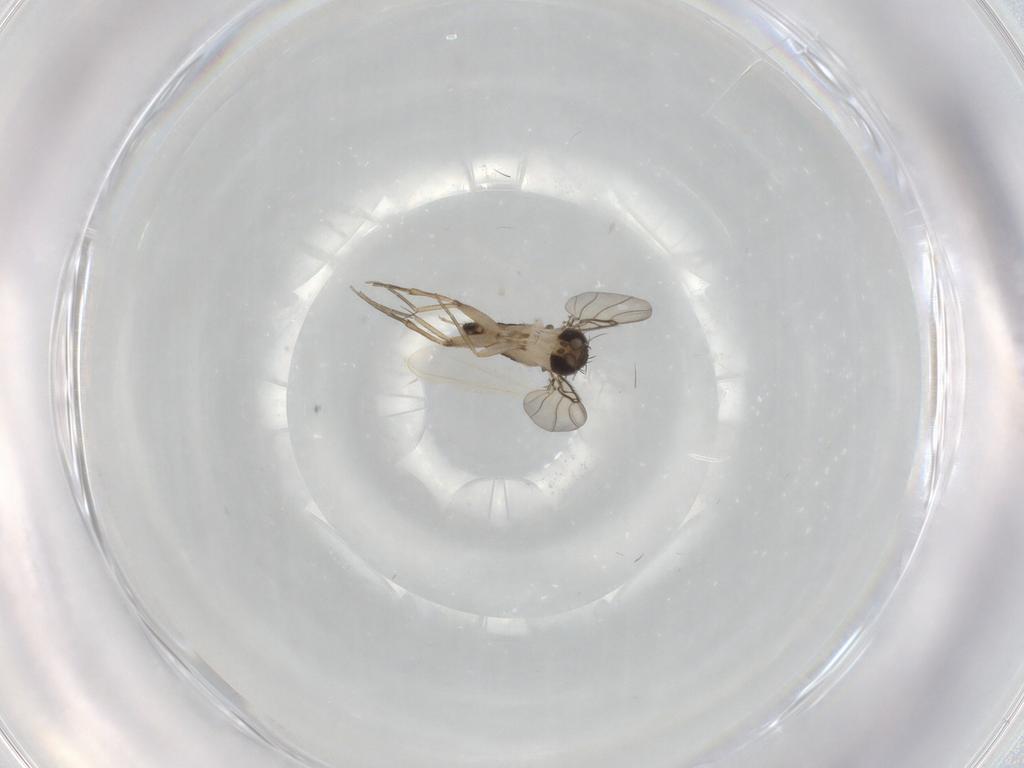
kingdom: Animalia
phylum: Arthropoda
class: Insecta
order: Diptera
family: Phoridae
